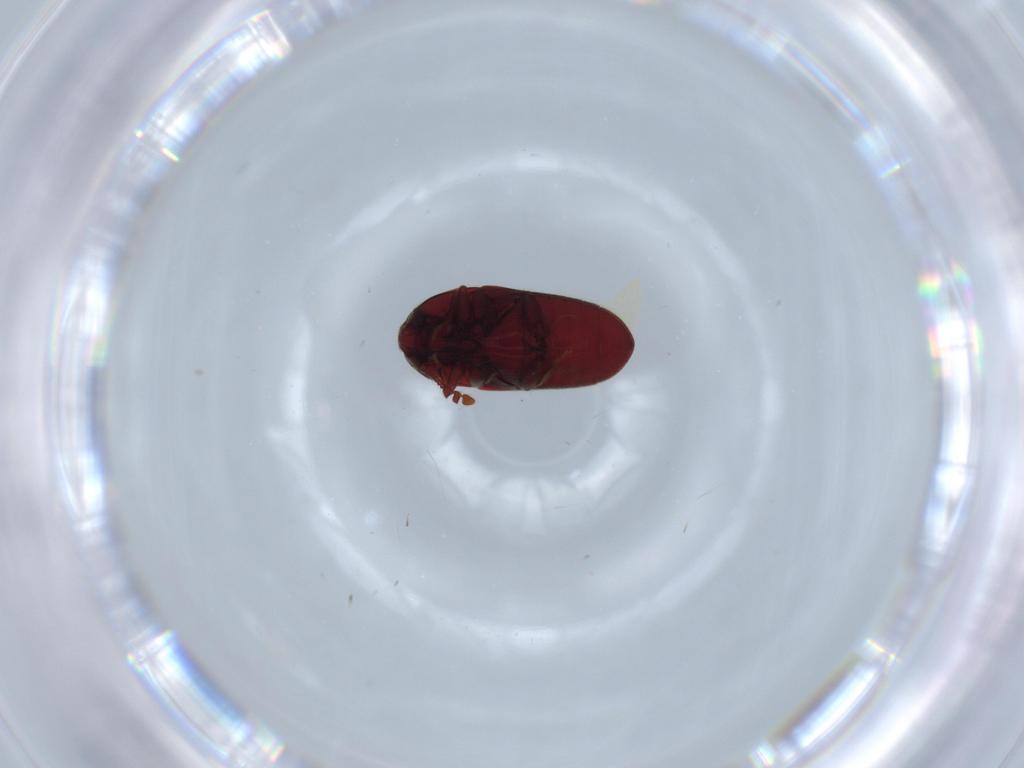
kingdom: Animalia
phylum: Arthropoda
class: Insecta
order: Coleoptera
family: Throscidae
